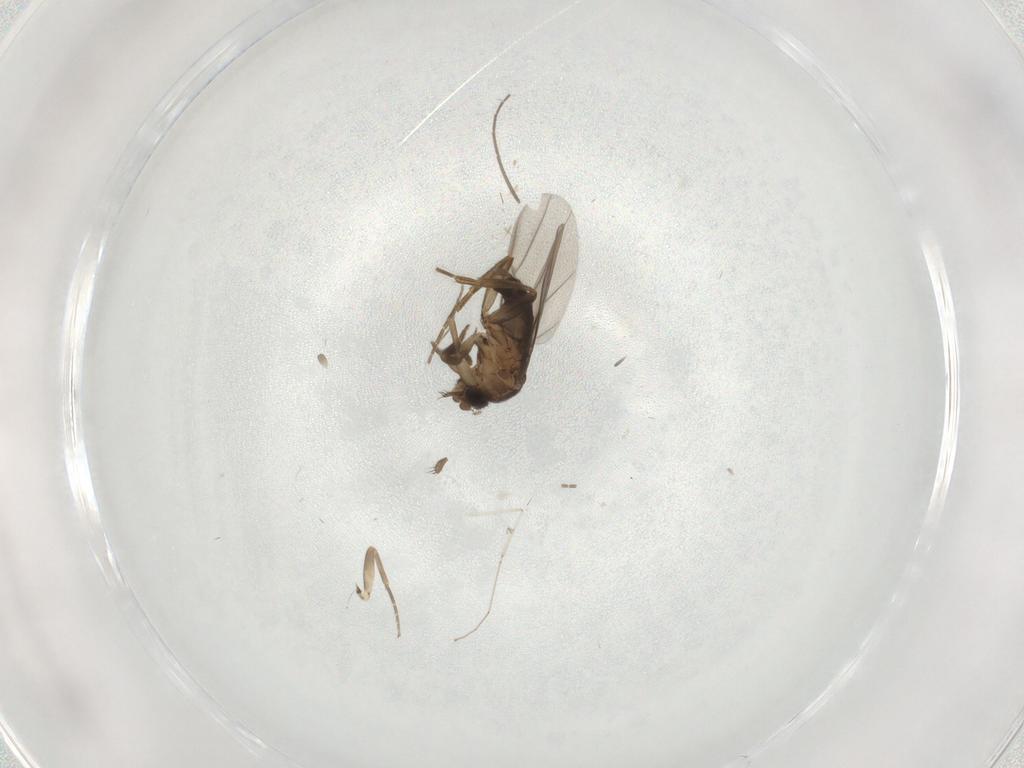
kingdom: Animalia
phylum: Arthropoda
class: Insecta
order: Diptera
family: Chironomidae
